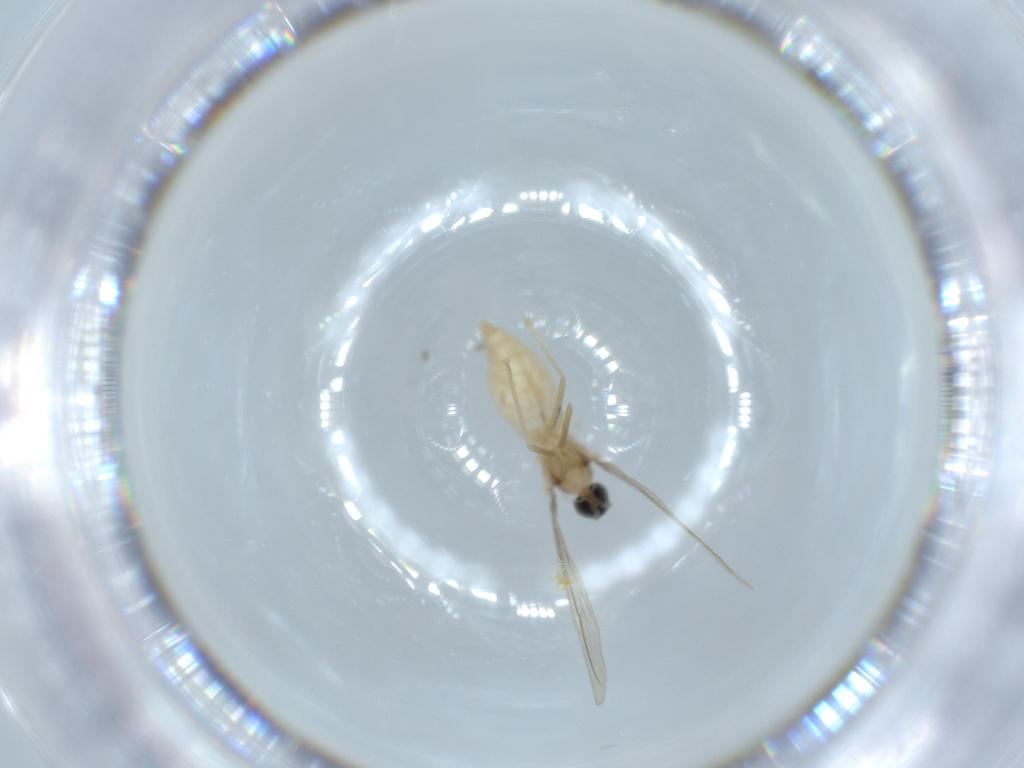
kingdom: Animalia
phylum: Arthropoda
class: Insecta
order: Diptera
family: Cecidomyiidae
